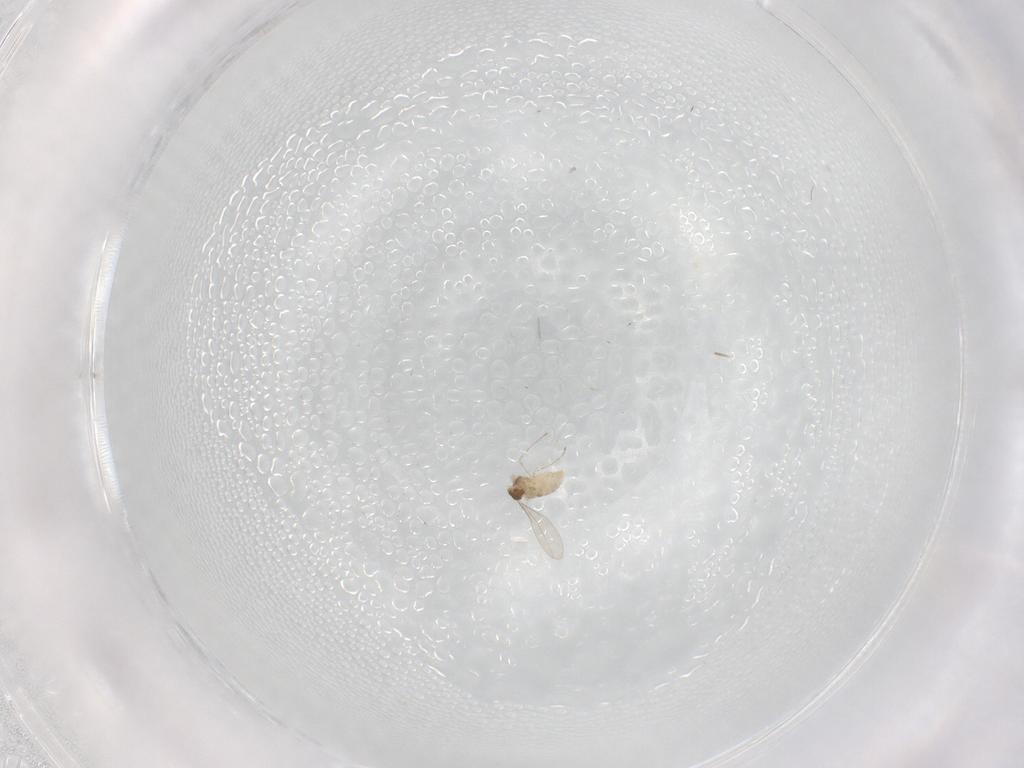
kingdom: Animalia
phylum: Arthropoda
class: Insecta
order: Diptera
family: Cecidomyiidae
